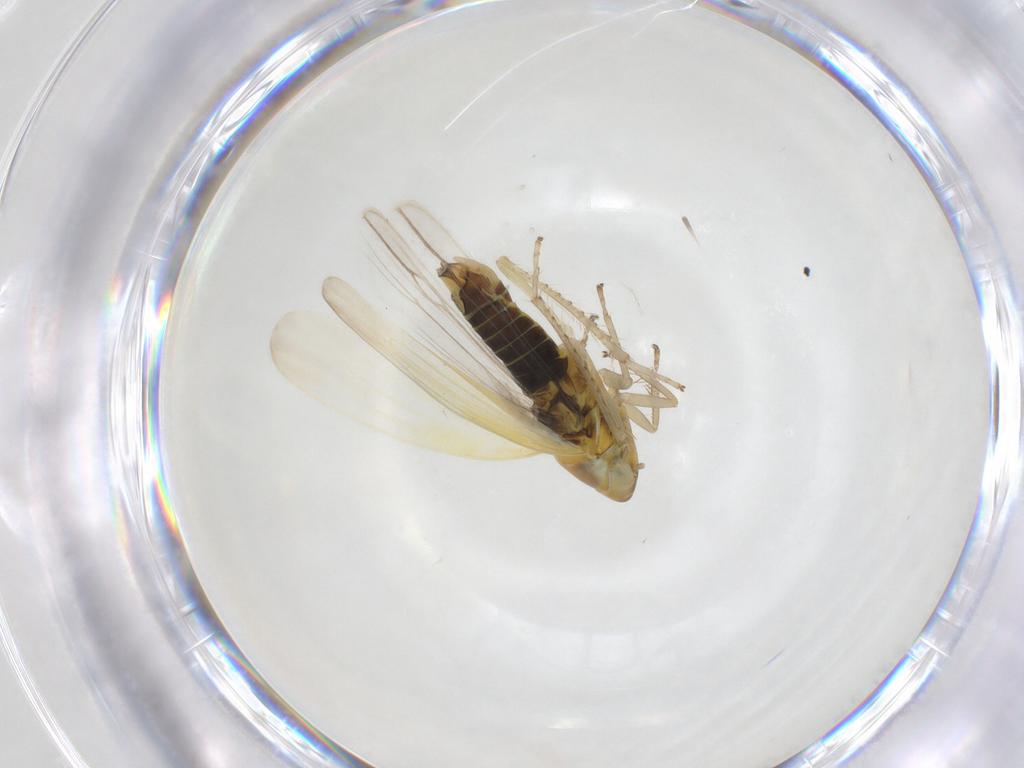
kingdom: Animalia
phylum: Arthropoda
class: Insecta
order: Hemiptera
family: Cicadellidae
